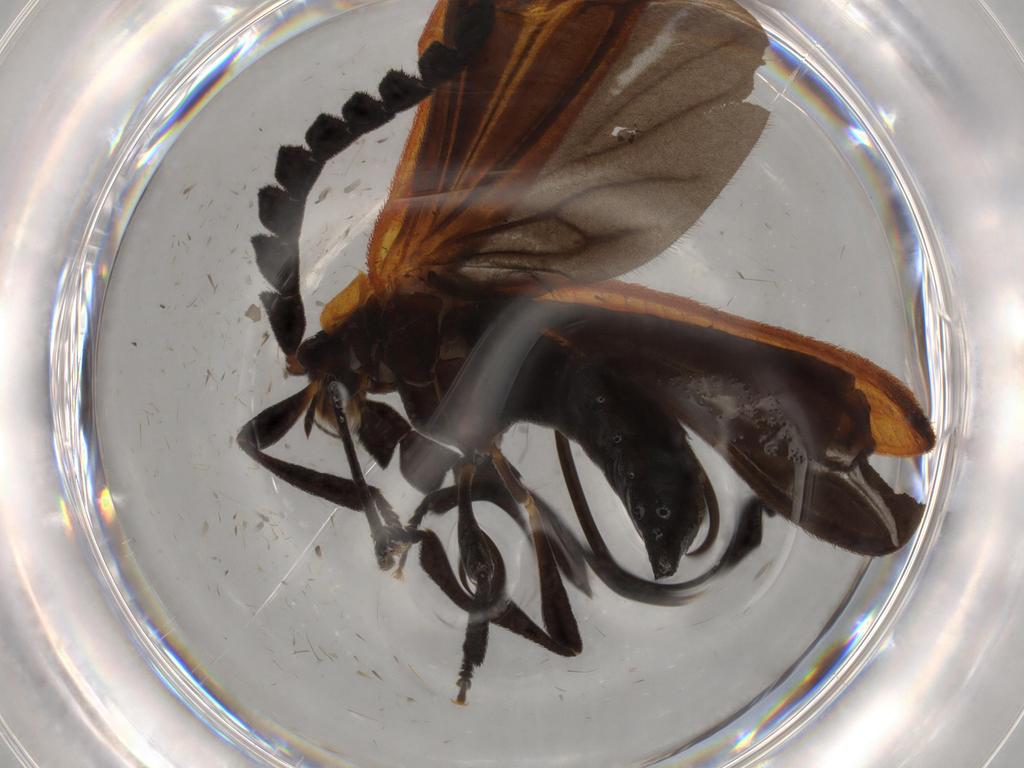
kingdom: Animalia
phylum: Arthropoda
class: Insecta
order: Coleoptera
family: Lycidae
